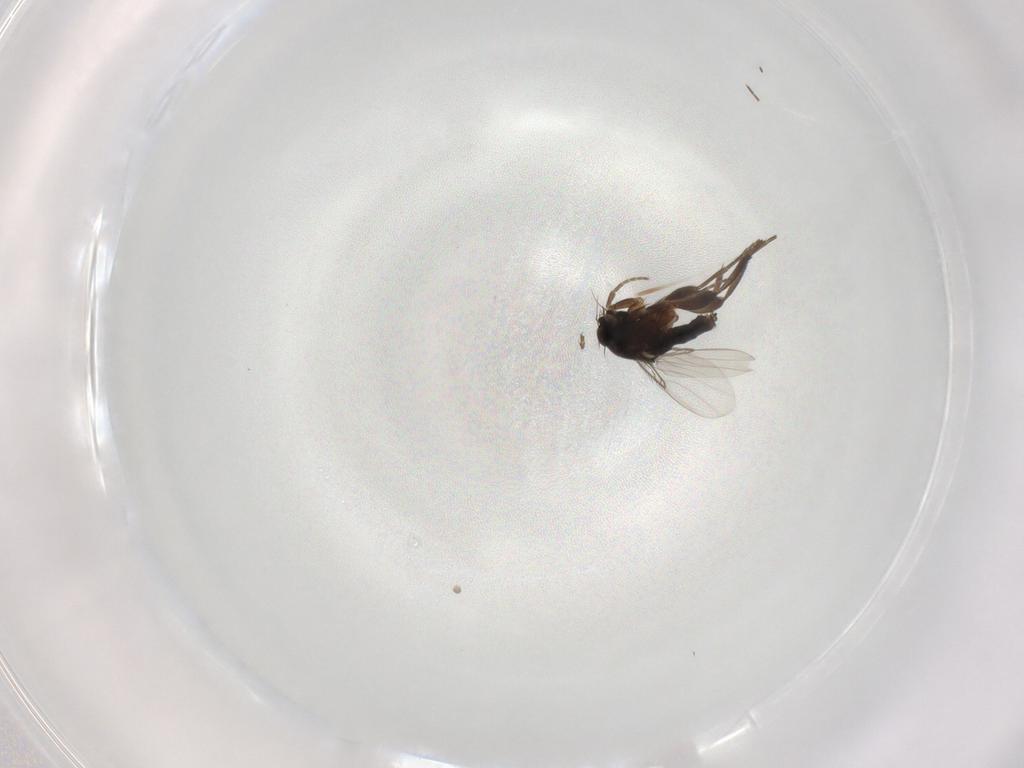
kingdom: Animalia
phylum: Arthropoda
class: Insecta
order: Diptera
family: Phoridae
